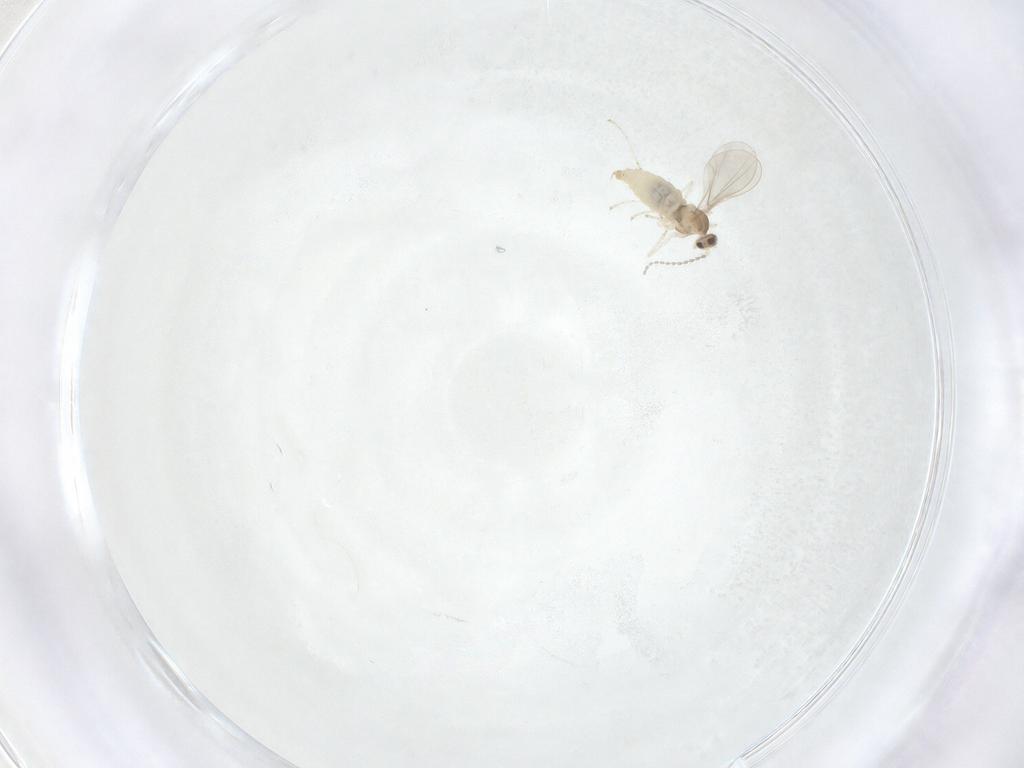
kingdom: Animalia
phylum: Arthropoda
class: Insecta
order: Diptera
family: Cecidomyiidae
